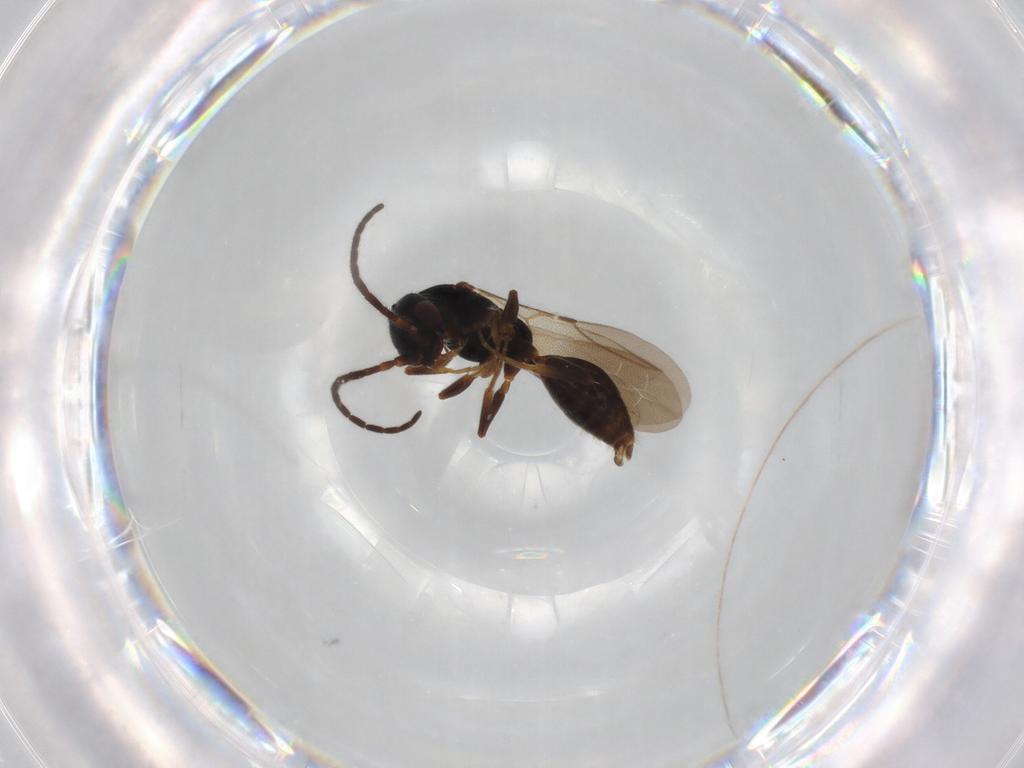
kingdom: Animalia
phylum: Arthropoda
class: Insecta
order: Hymenoptera
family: Bethylidae
